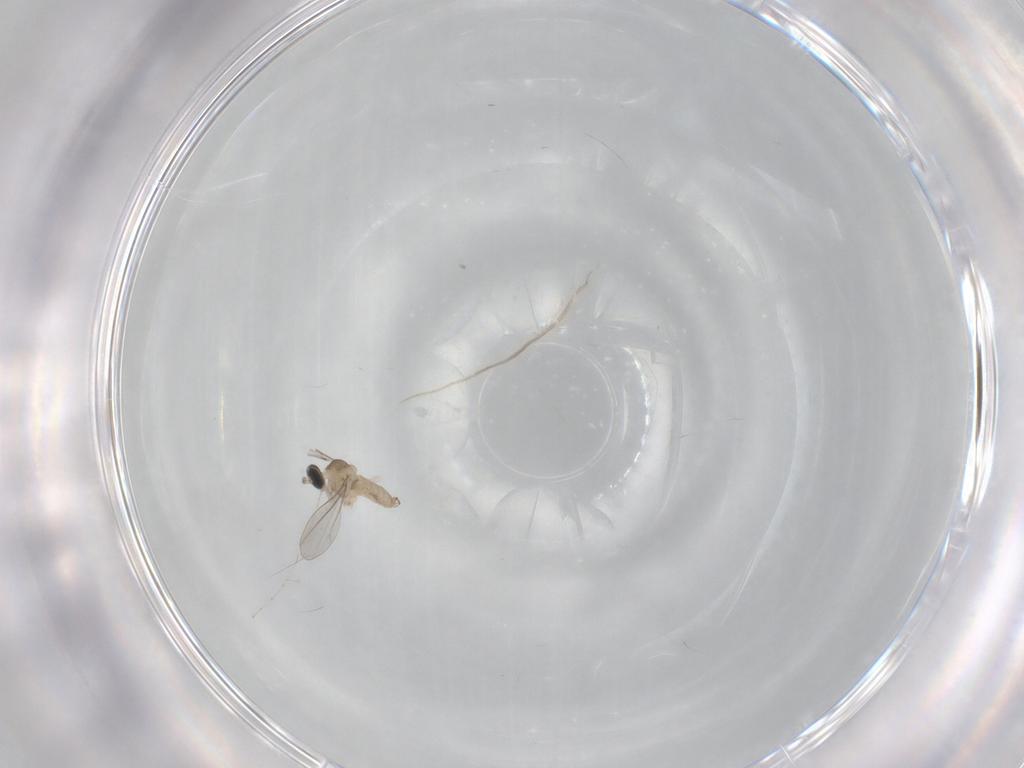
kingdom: Animalia
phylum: Arthropoda
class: Insecta
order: Diptera
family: Cecidomyiidae
